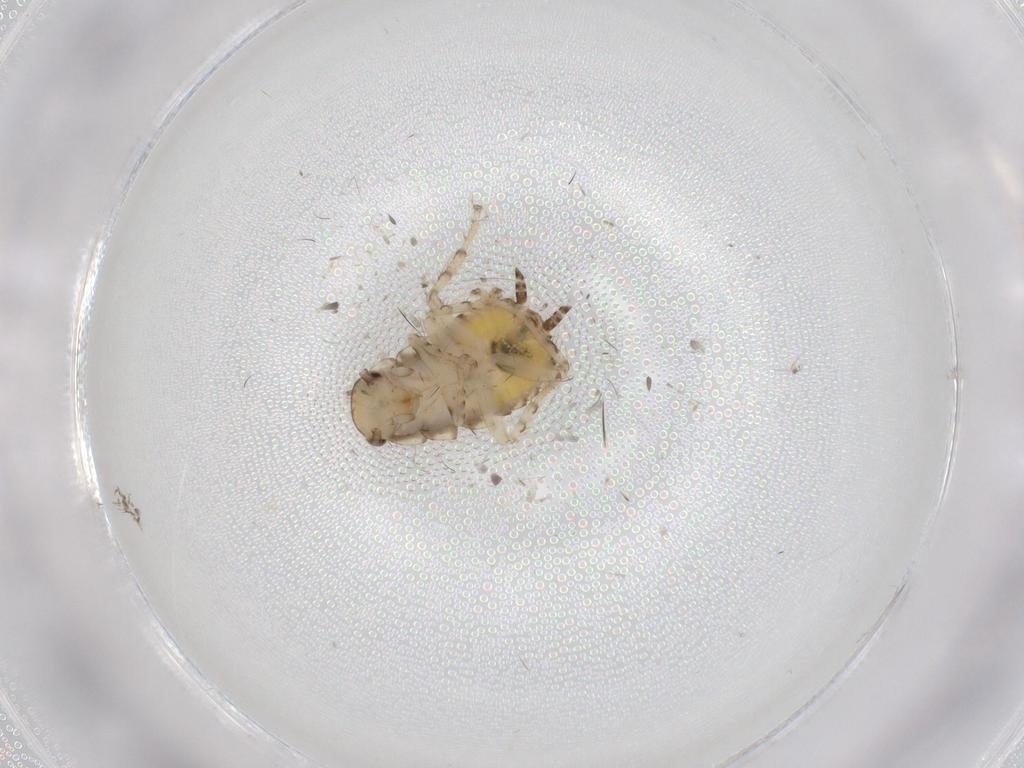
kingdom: Animalia
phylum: Arthropoda
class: Insecta
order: Blattodea
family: Ectobiidae
